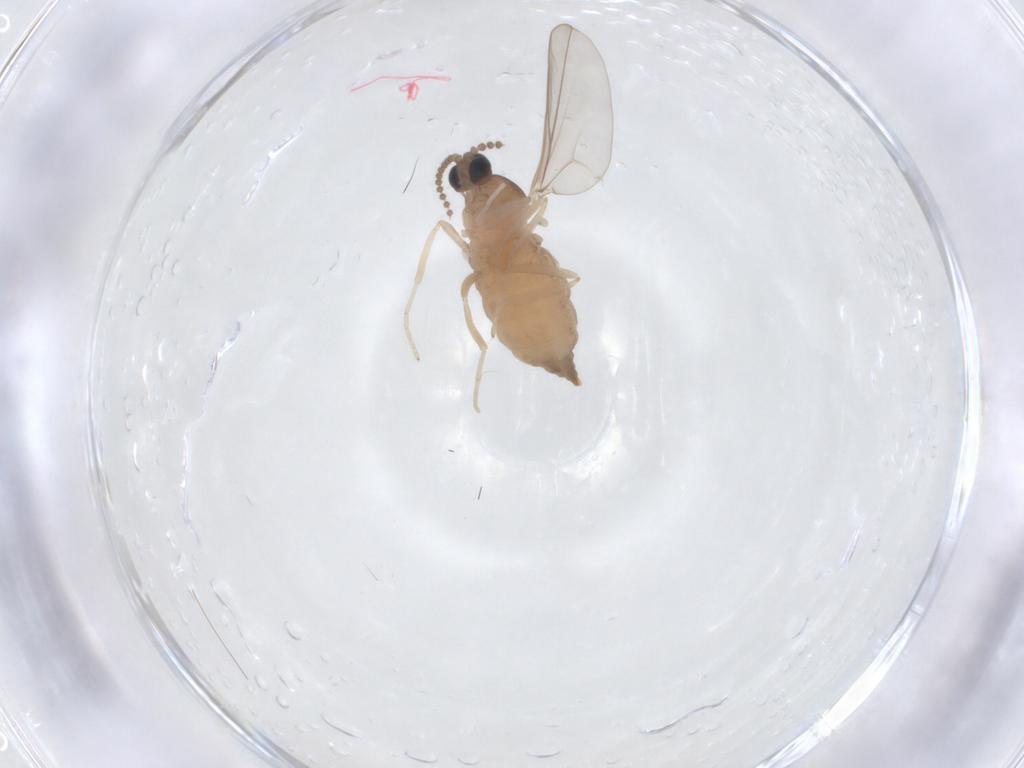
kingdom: Animalia
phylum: Arthropoda
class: Insecta
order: Diptera
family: Cecidomyiidae
